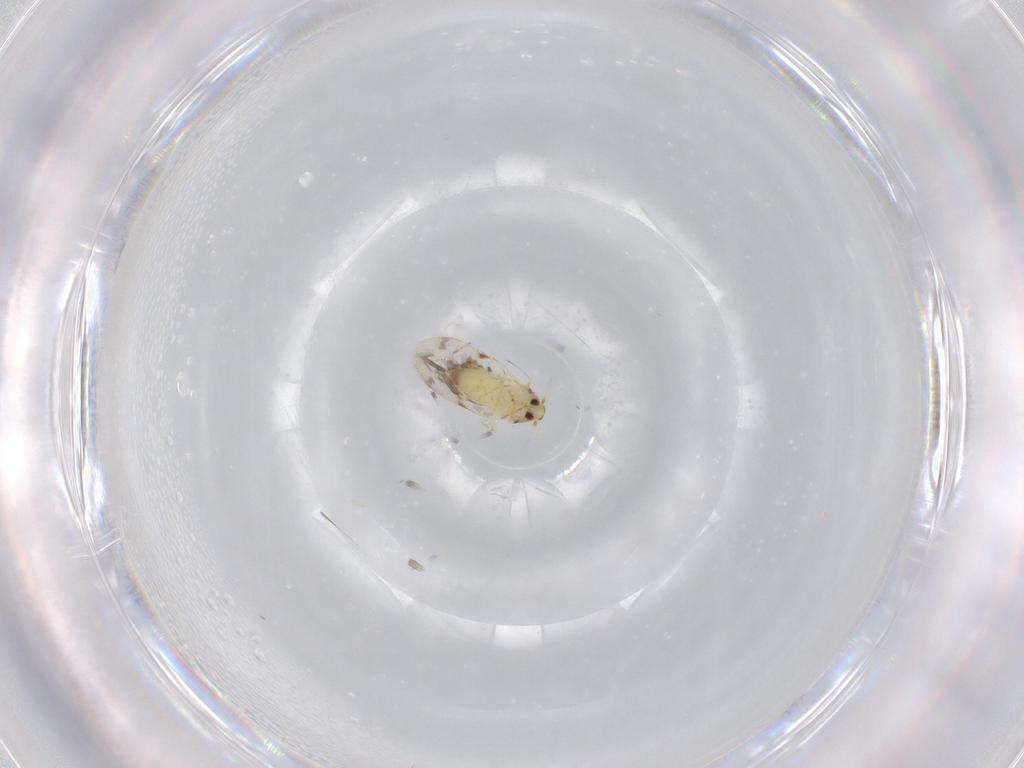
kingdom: Animalia
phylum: Arthropoda
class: Insecta
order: Hemiptera
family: Aleyrodidae
